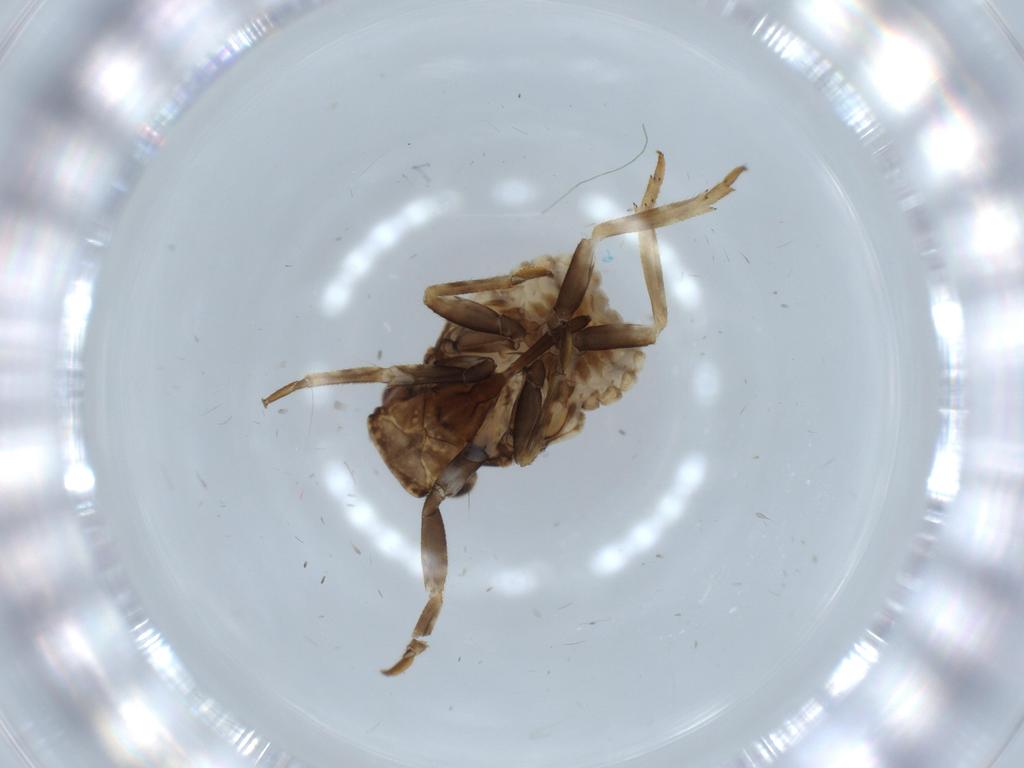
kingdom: Animalia
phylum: Arthropoda
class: Insecta
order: Hemiptera
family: Fulgoroidea_incertae_sedis
